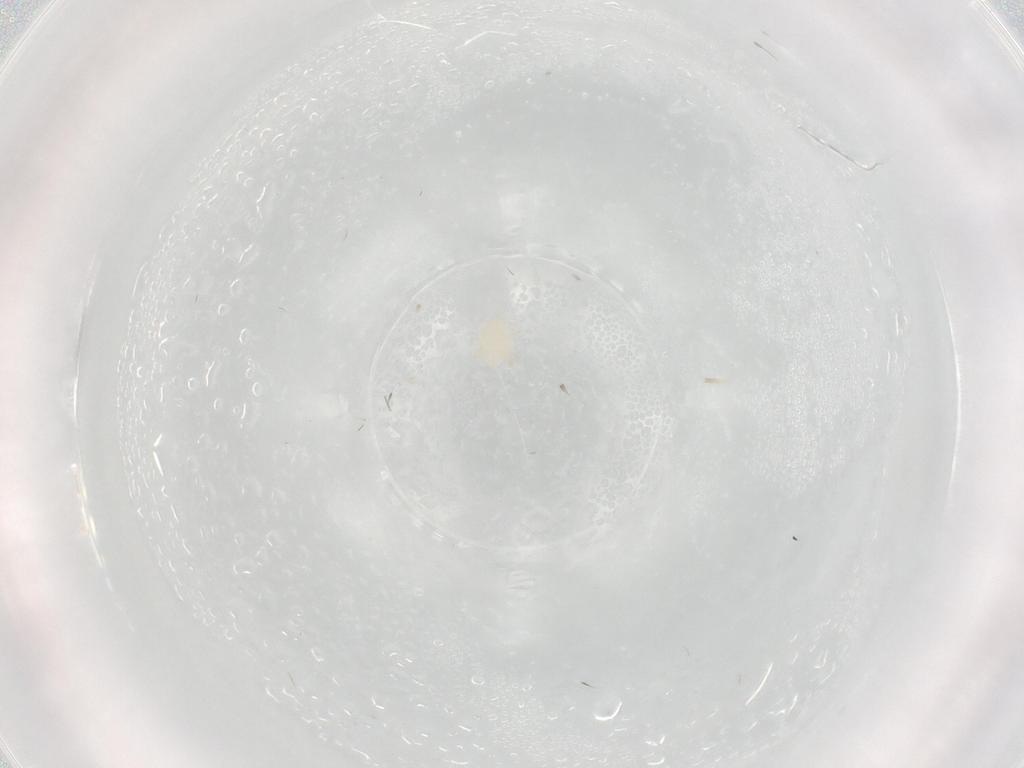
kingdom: Animalia
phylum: Arthropoda
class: Arachnida
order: Trombidiformes
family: Microtrombidiidae
